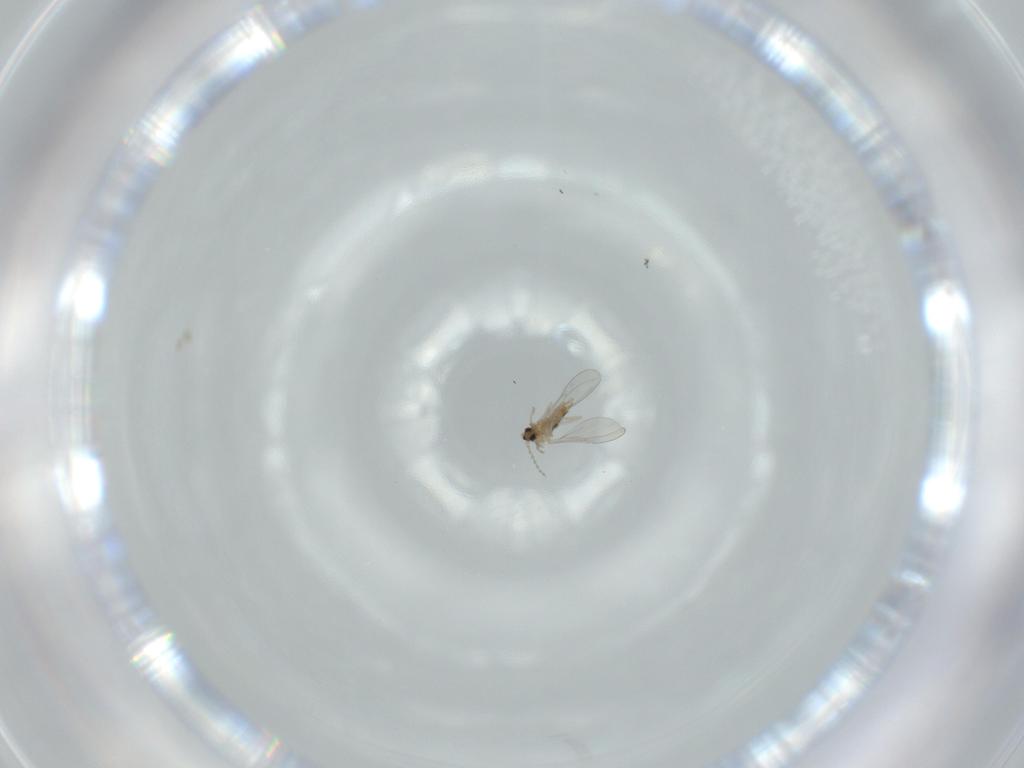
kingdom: Animalia
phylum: Arthropoda
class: Insecta
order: Diptera
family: Cecidomyiidae
